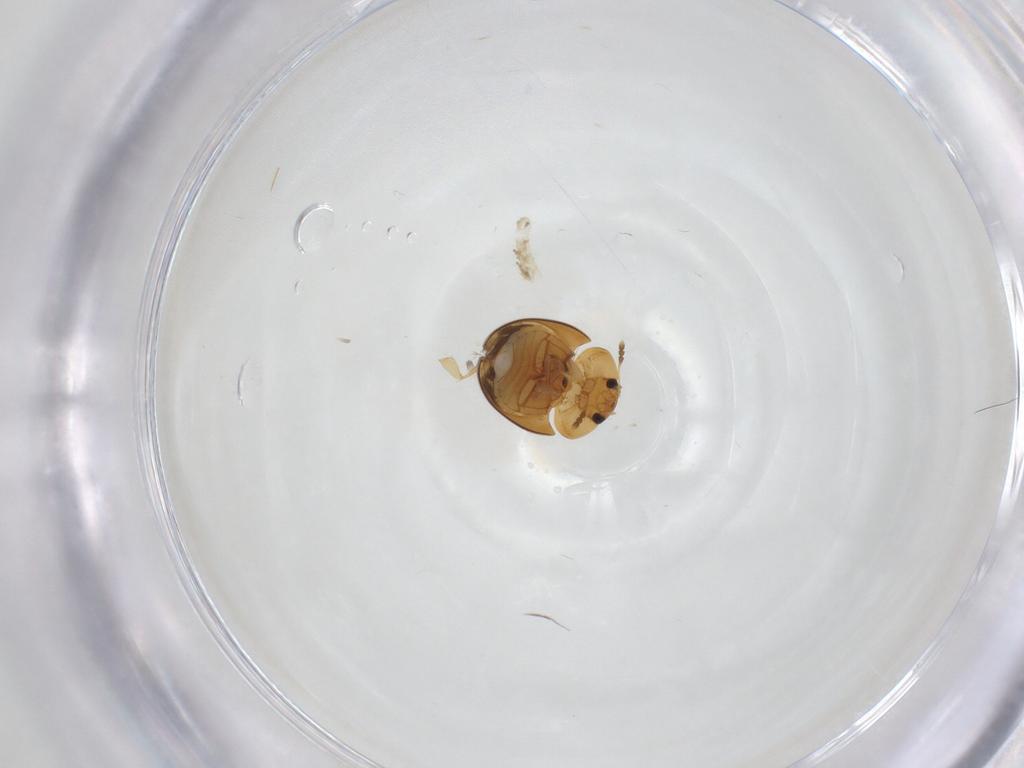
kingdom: Animalia
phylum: Arthropoda
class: Insecta
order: Coleoptera
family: Phalacridae
